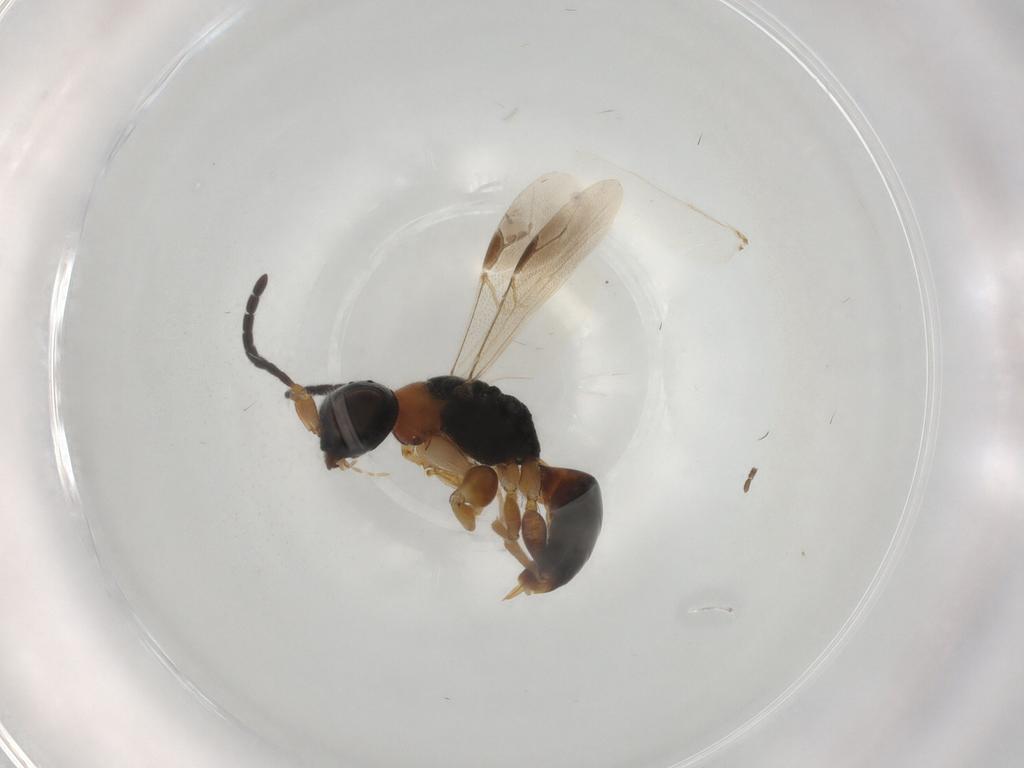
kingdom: Animalia
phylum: Arthropoda
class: Insecta
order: Hymenoptera
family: Dryinidae
